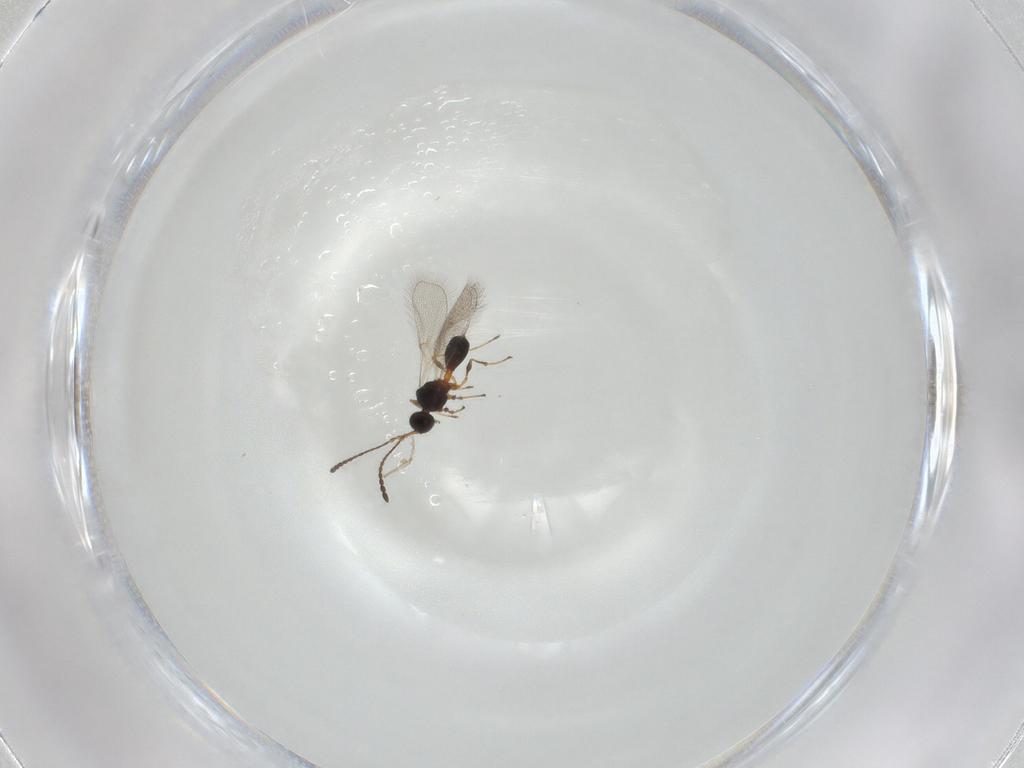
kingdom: Animalia
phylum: Arthropoda
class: Insecta
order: Hymenoptera
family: Diapriidae
